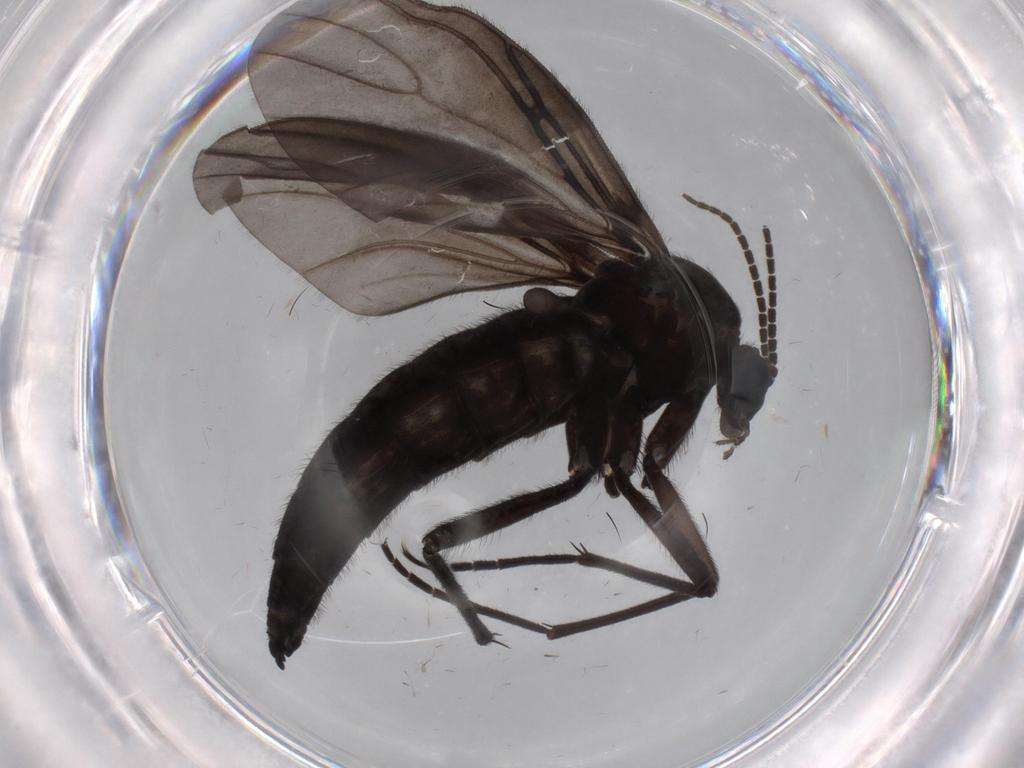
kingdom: Animalia
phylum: Arthropoda
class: Insecta
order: Diptera
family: Sciaridae
